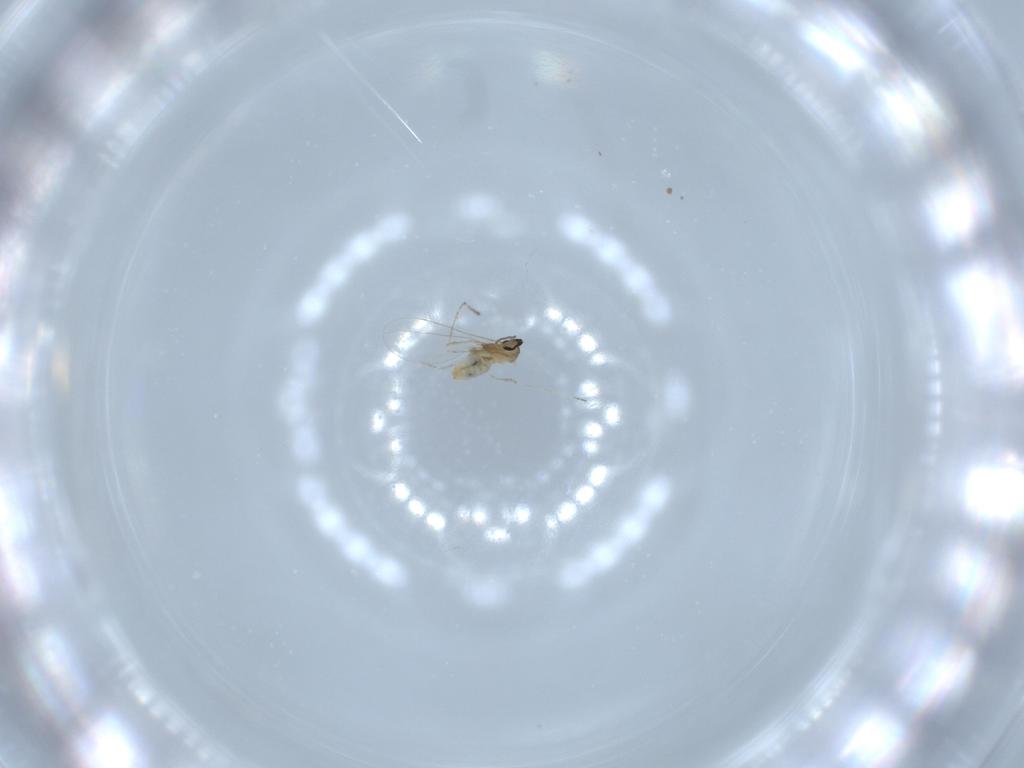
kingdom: Animalia
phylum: Arthropoda
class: Insecta
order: Diptera
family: Cecidomyiidae
